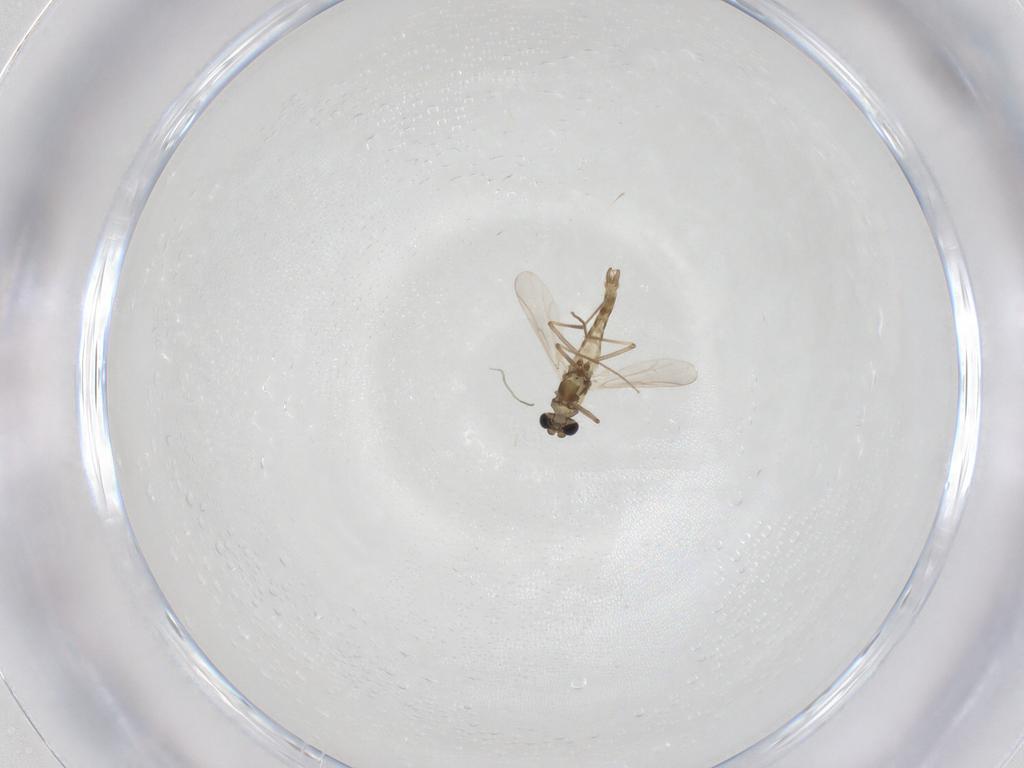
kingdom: Animalia
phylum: Arthropoda
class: Insecta
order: Diptera
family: Chironomidae
